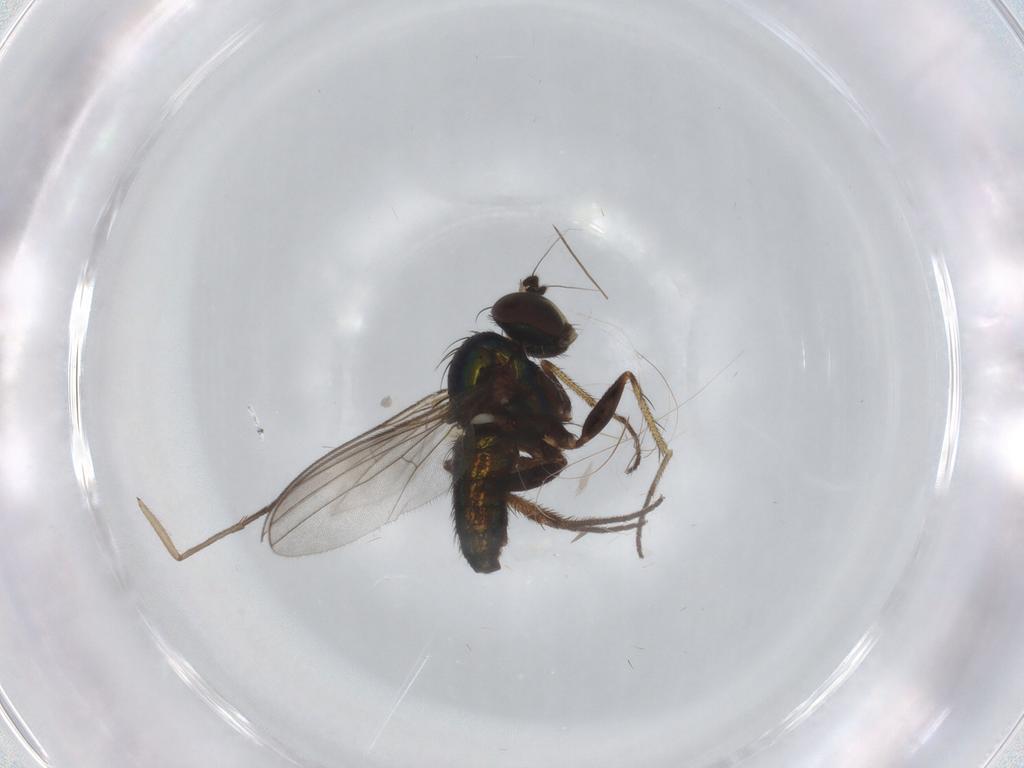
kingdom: Animalia
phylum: Arthropoda
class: Insecta
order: Diptera
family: Dolichopodidae
